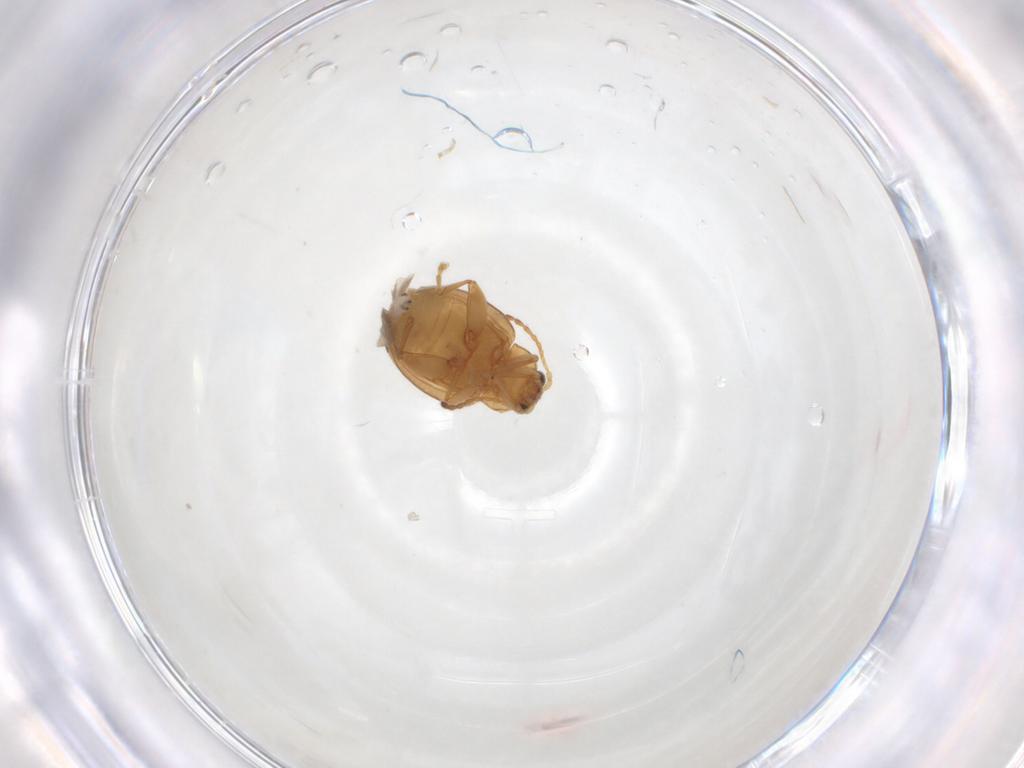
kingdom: Animalia
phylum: Arthropoda
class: Insecta
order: Coleoptera
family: Chrysomelidae
